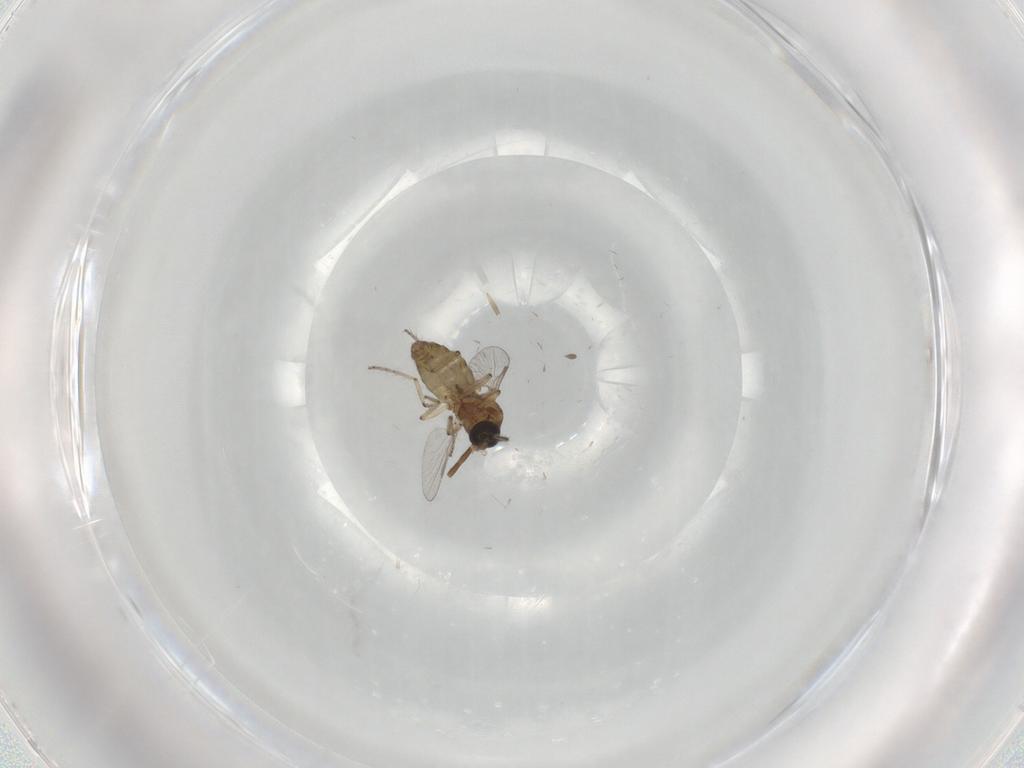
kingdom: Animalia
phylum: Arthropoda
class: Insecta
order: Diptera
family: Ceratopogonidae
